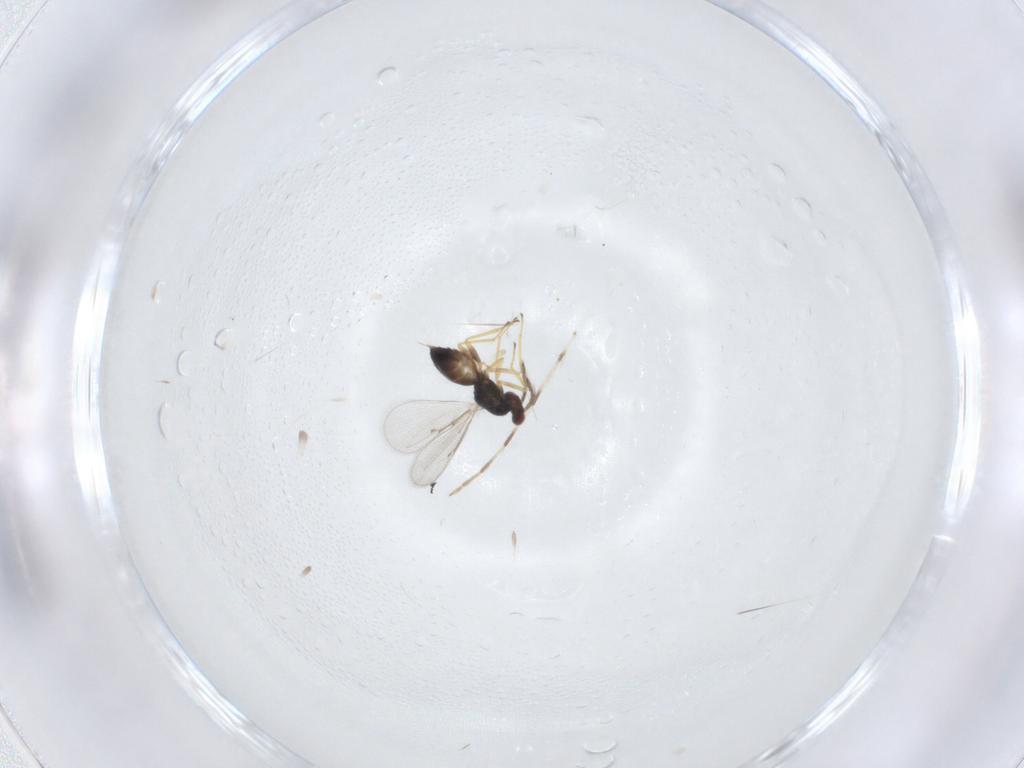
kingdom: Animalia
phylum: Arthropoda
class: Insecta
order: Hymenoptera
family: Eulophidae
